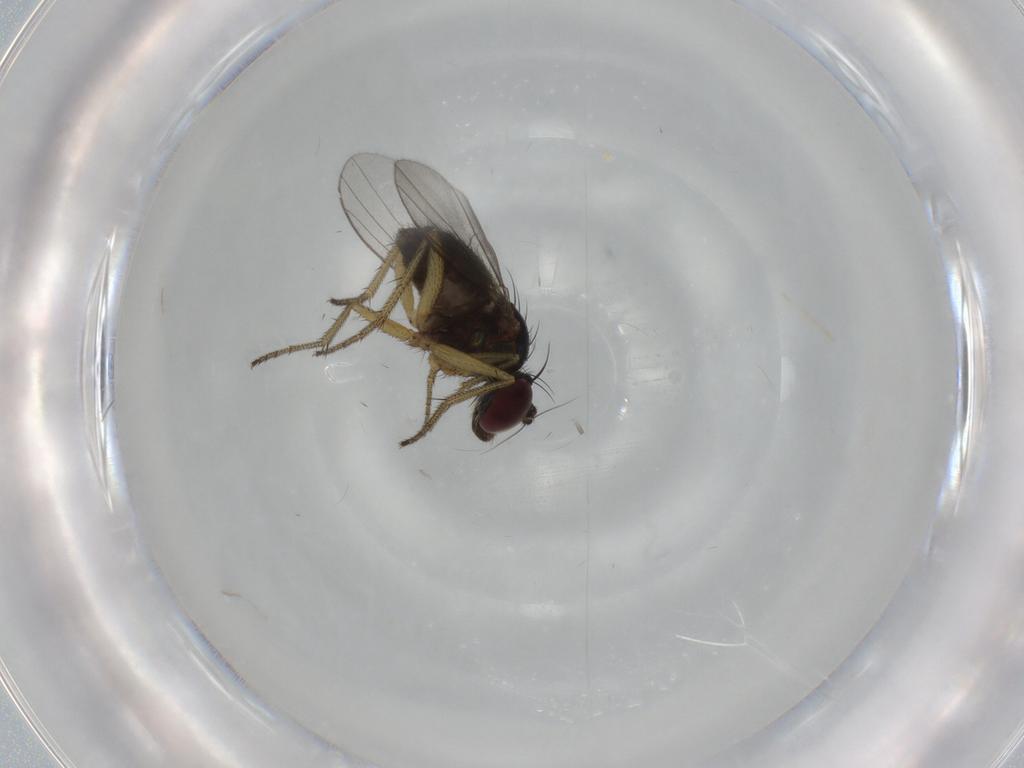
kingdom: Animalia
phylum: Arthropoda
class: Insecta
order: Diptera
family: Dolichopodidae
